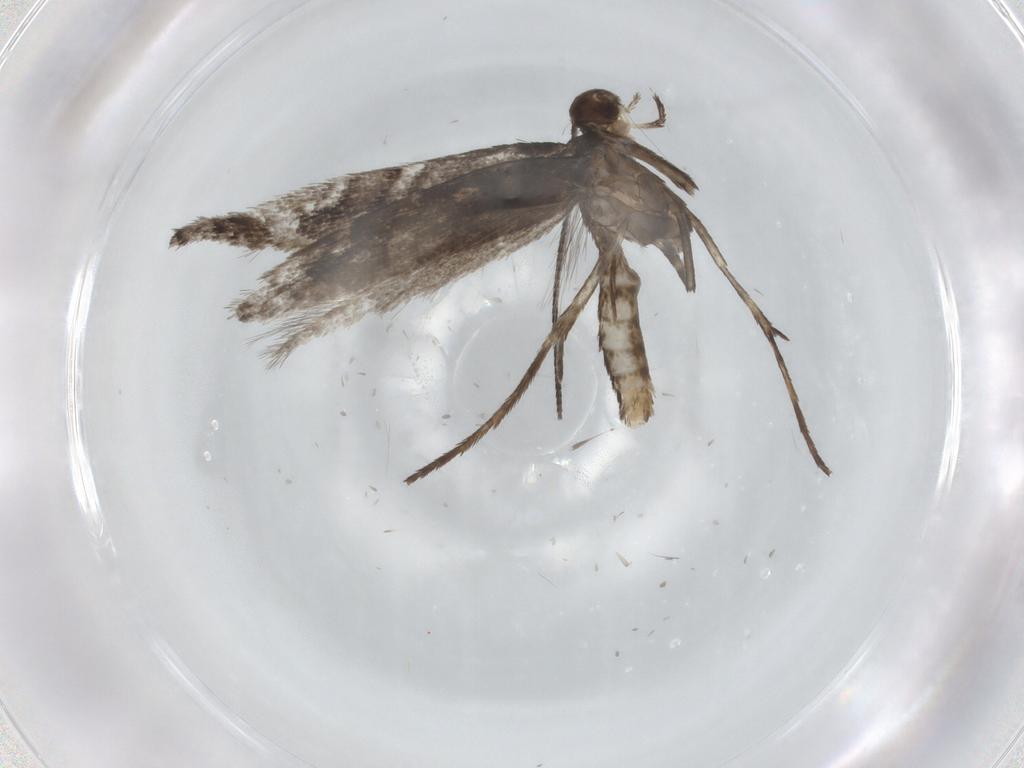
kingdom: Animalia
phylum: Arthropoda
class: Insecta
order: Lepidoptera
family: Gracillariidae
